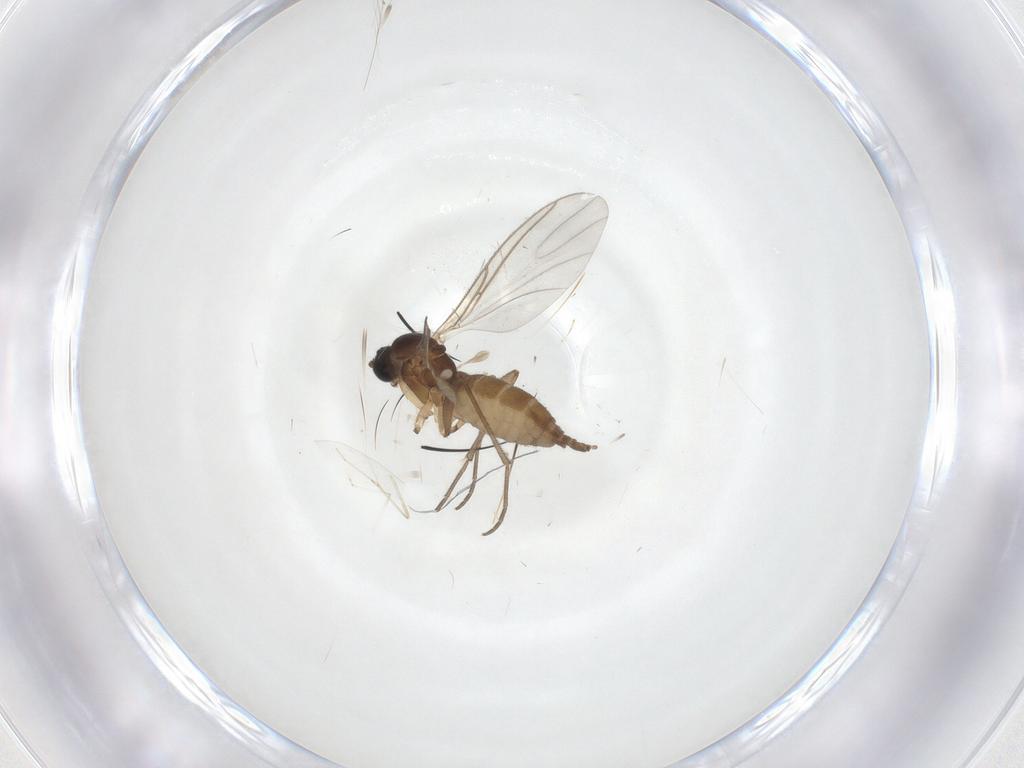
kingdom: Animalia
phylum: Arthropoda
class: Insecta
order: Diptera
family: Sciaridae
